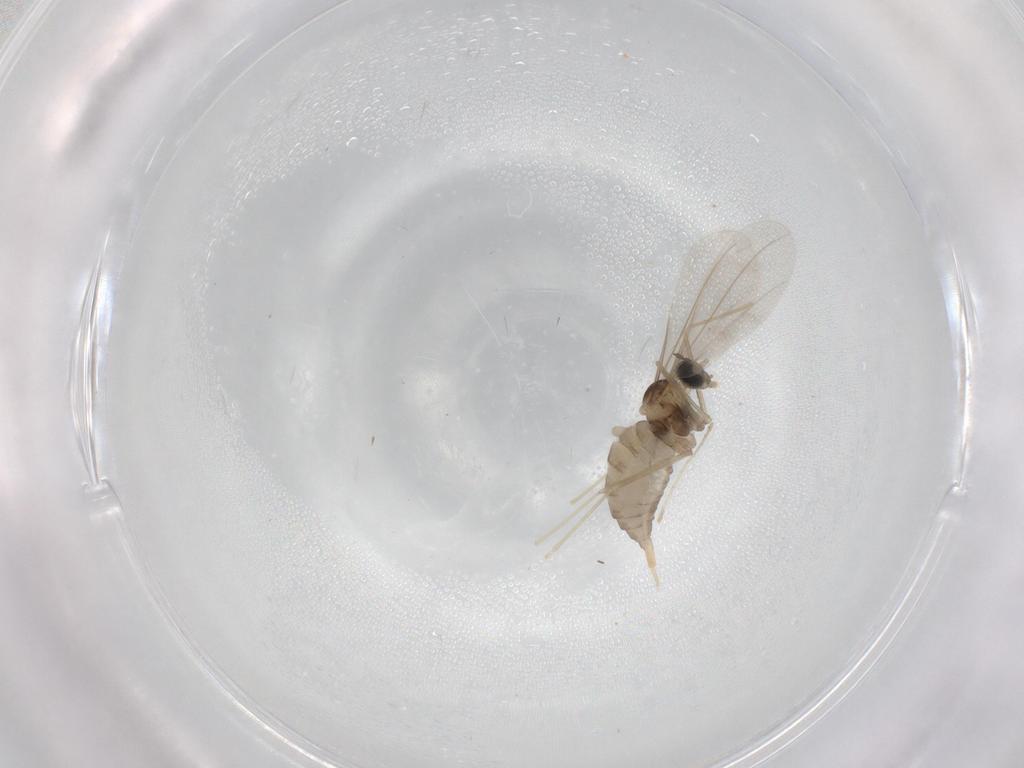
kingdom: Animalia
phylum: Arthropoda
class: Insecta
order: Diptera
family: Cecidomyiidae
